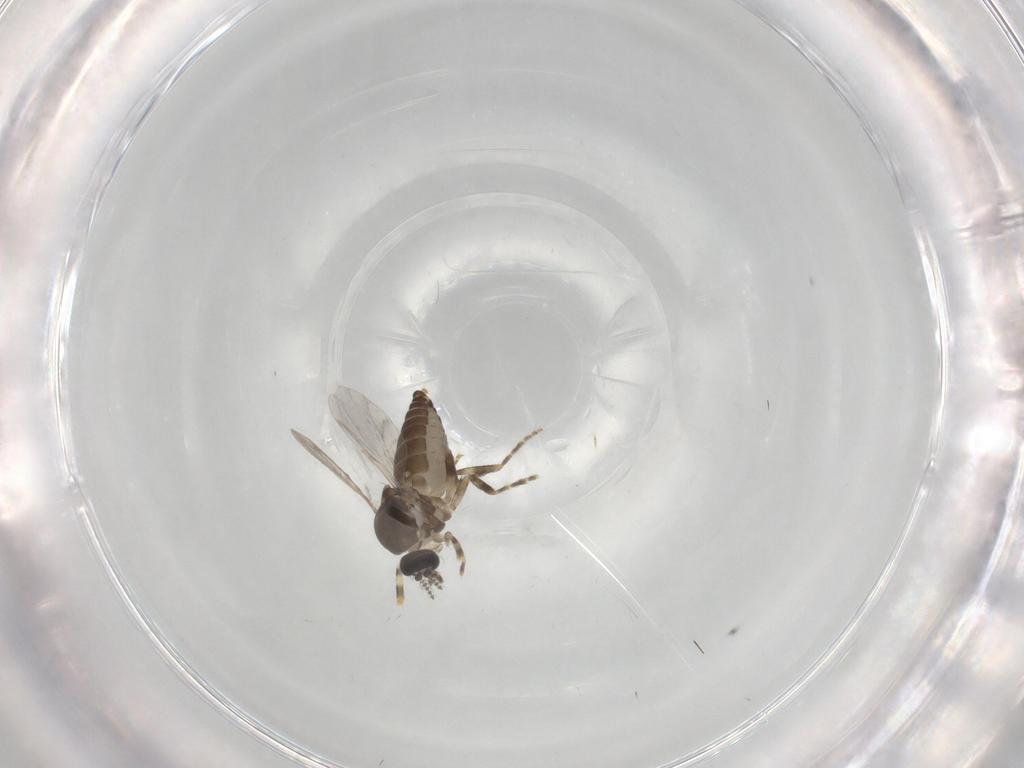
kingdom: Animalia
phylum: Arthropoda
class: Insecta
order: Diptera
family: Ceratopogonidae
